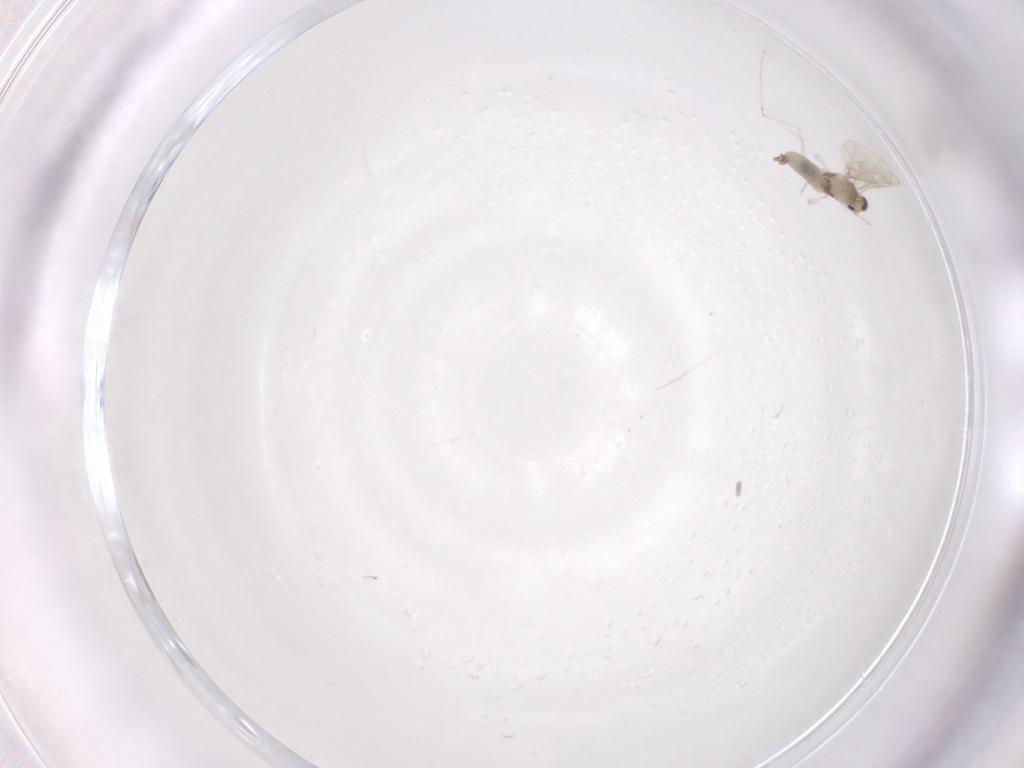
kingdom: Animalia
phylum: Arthropoda
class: Insecta
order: Diptera
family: Cecidomyiidae
